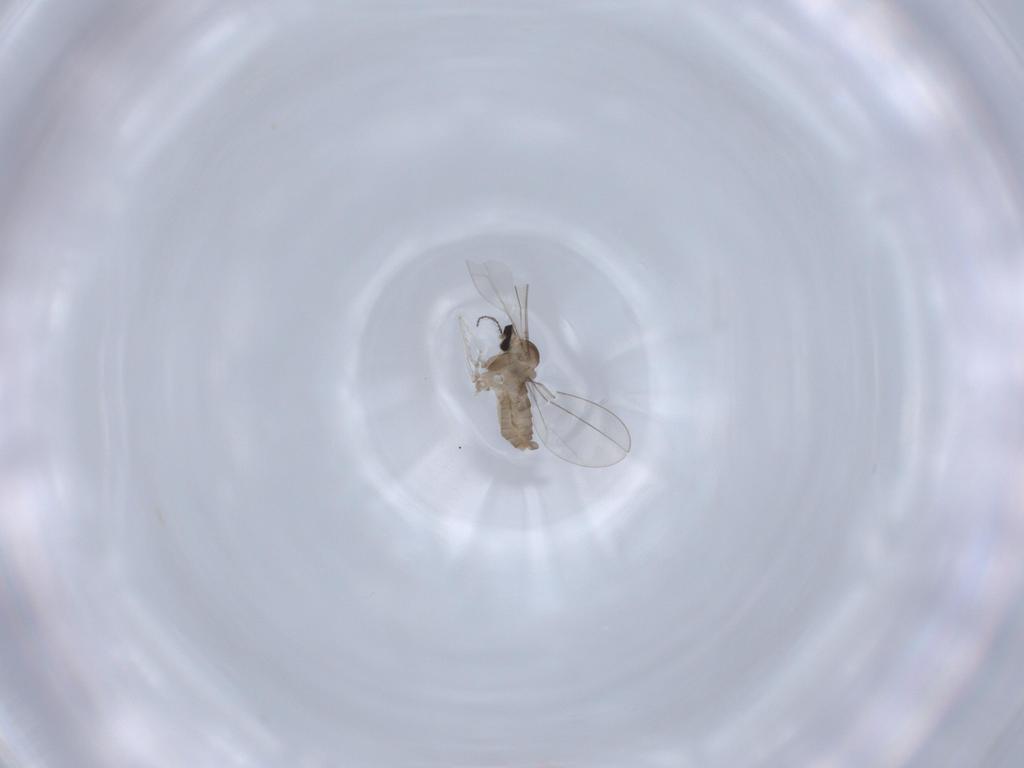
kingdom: Animalia
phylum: Arthropoda
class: Insecta
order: Diptera
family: Cecidomyiidae
